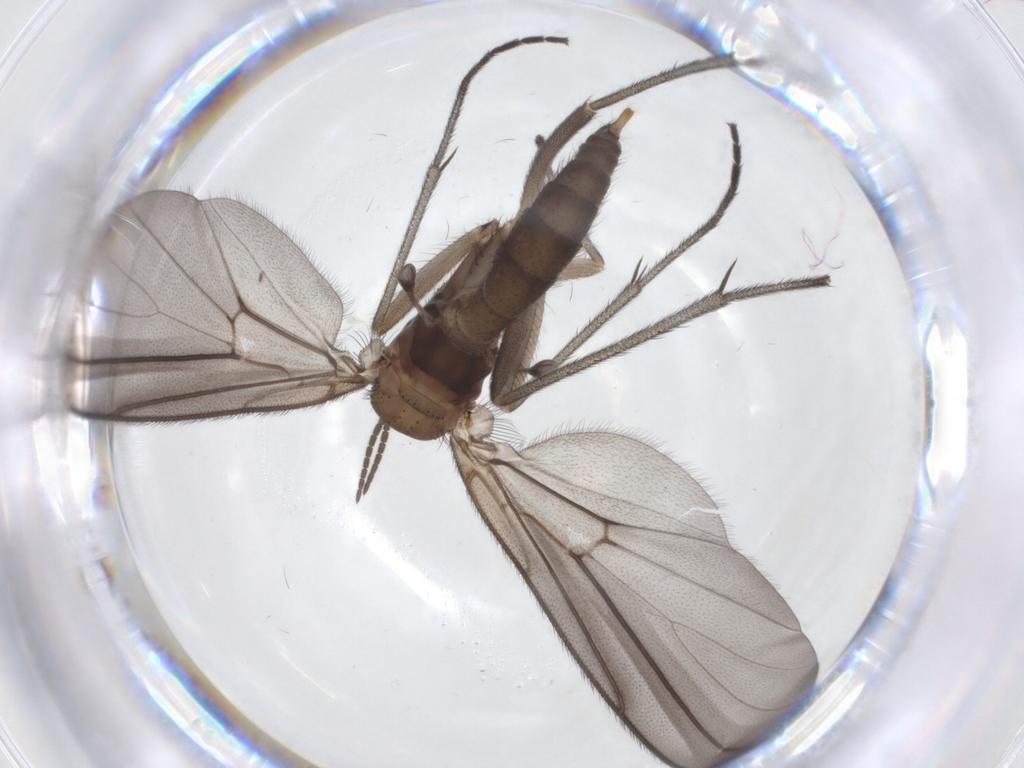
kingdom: Animalia
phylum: Arthropoda
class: Insecta
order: Diptera
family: Diadocidiidae
